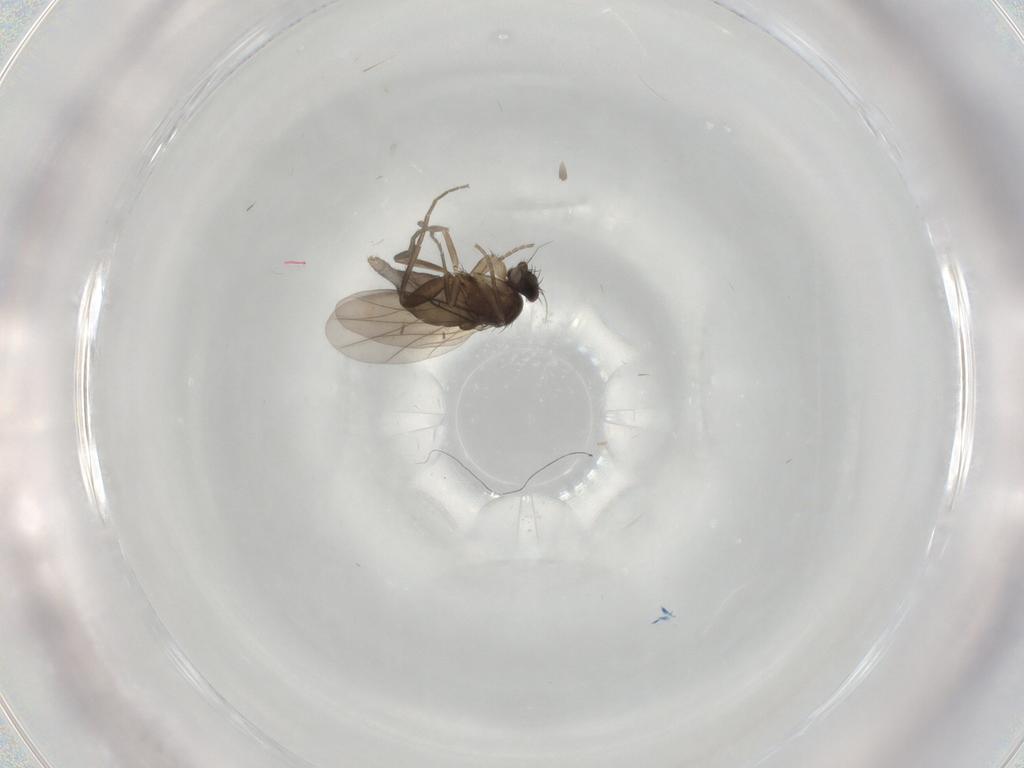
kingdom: Animalia
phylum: Arthropoda
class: Insecta
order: Diptera
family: Phoridae
